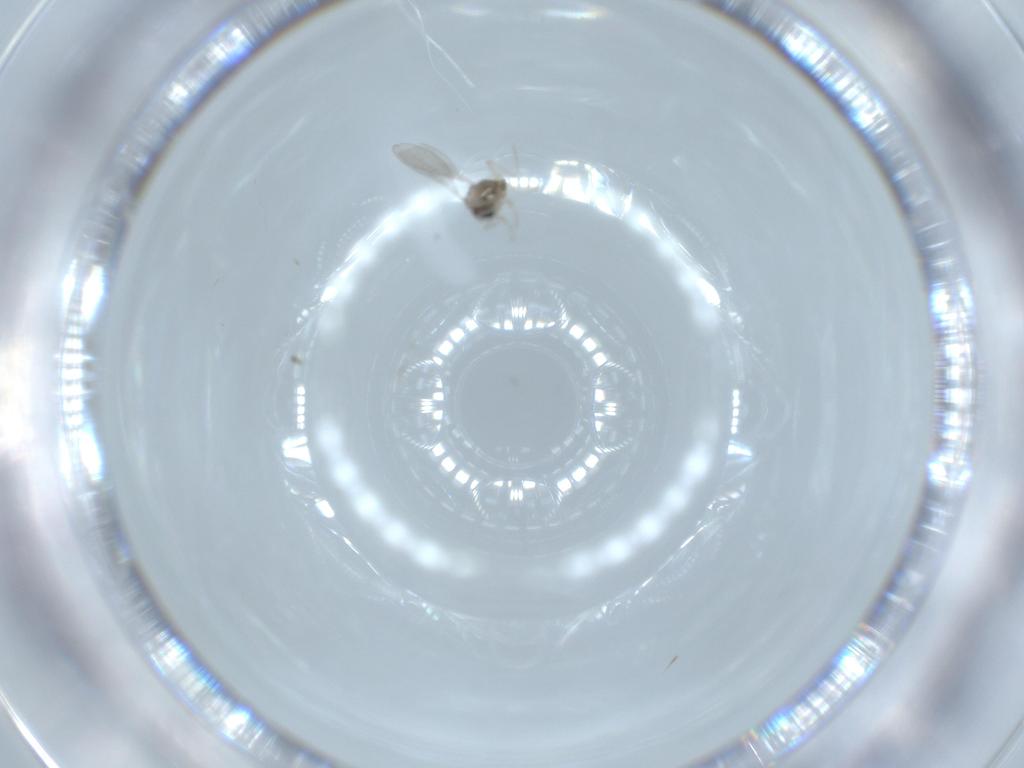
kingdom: Animalia
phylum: Arthropoda
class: Insecta
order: Diptera
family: Cecidomyiidae
